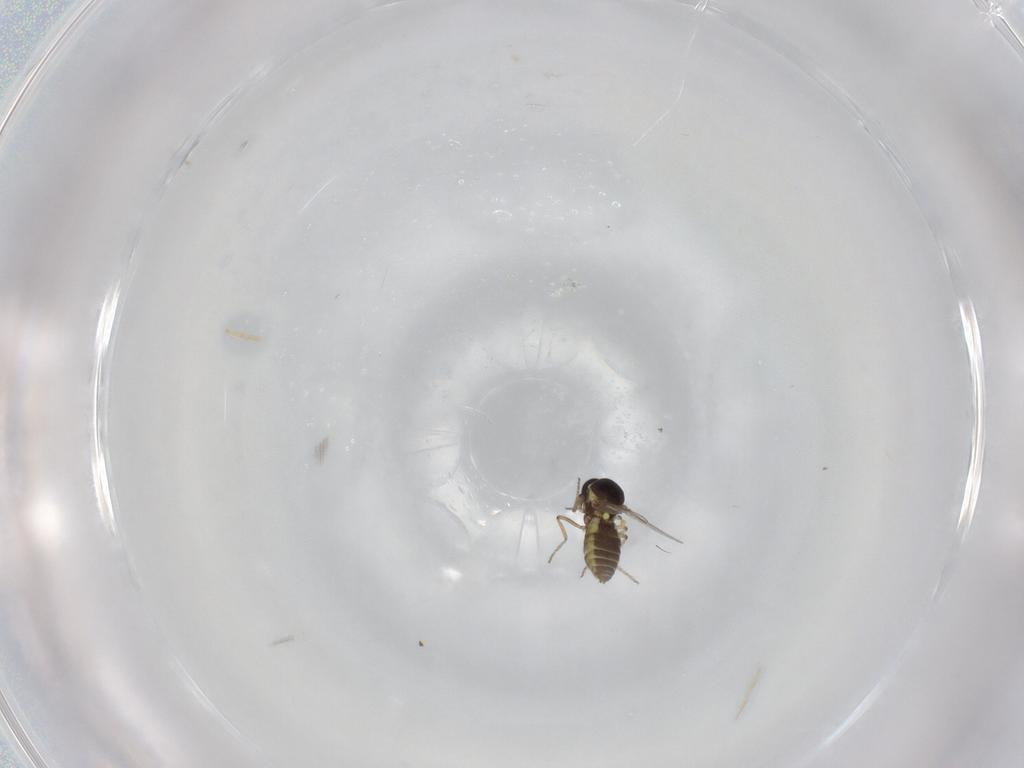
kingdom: Animalia
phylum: Arthropoda
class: Insecta
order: Diptera
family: Ceratopogonidae
